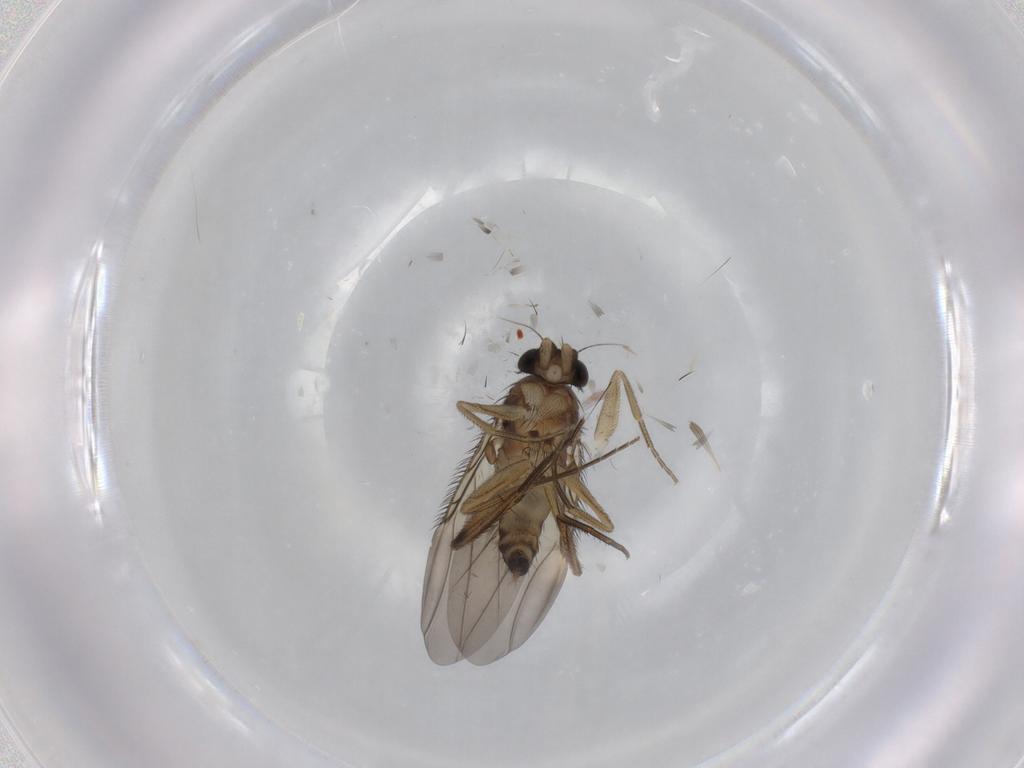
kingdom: Animalia
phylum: Arthropoda
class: Insecta
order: Diptera
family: Phoridae
